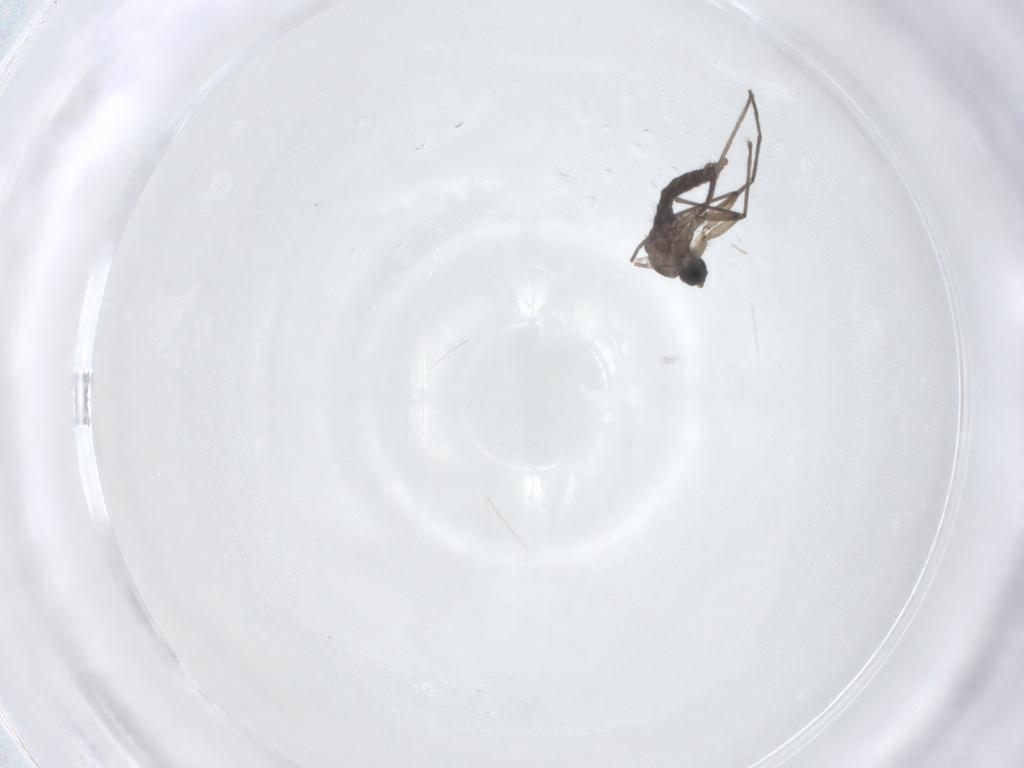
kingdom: Animalia
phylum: Arthropoda
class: Insecta
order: Diptera
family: Sciaridae
